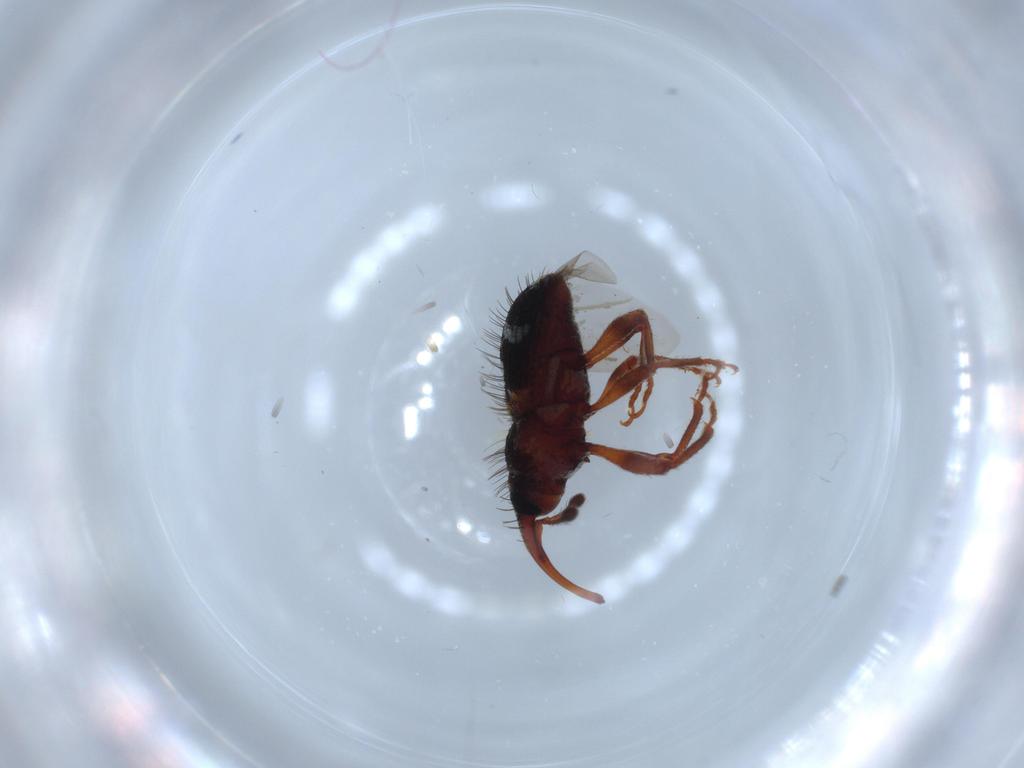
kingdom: Animalia
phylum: Arthropoda
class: Insecta
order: Coleoptera
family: Curculionidae
